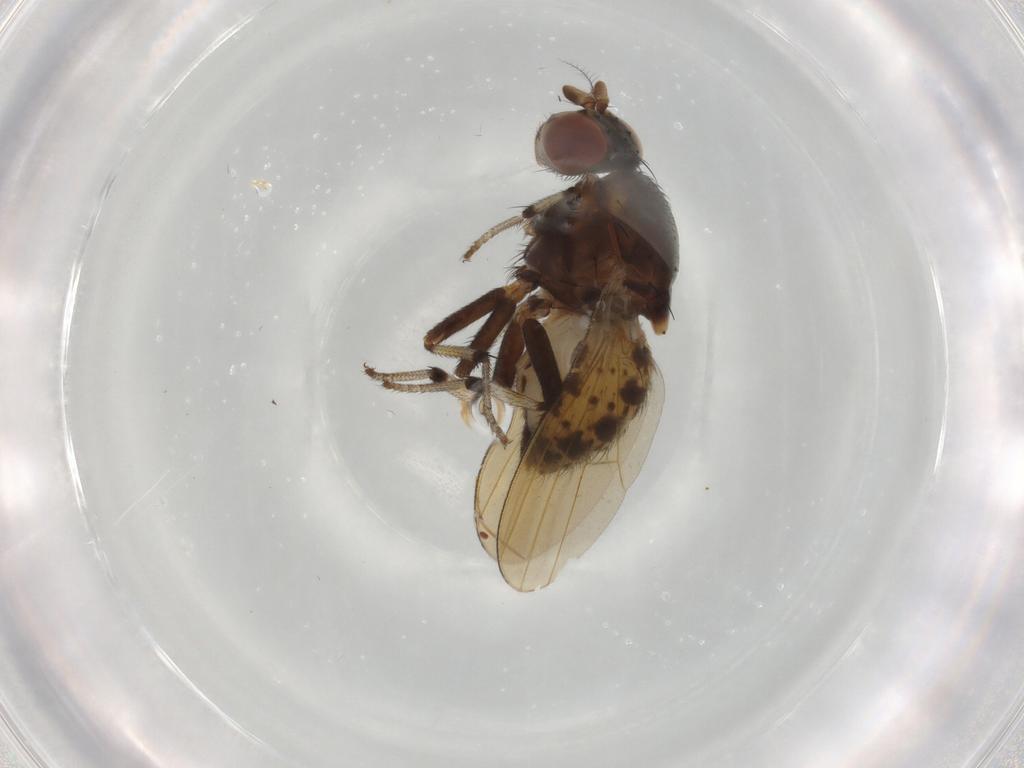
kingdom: Animalia
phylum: Arthropoda
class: Insecta
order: Diptera
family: Chironomidae
